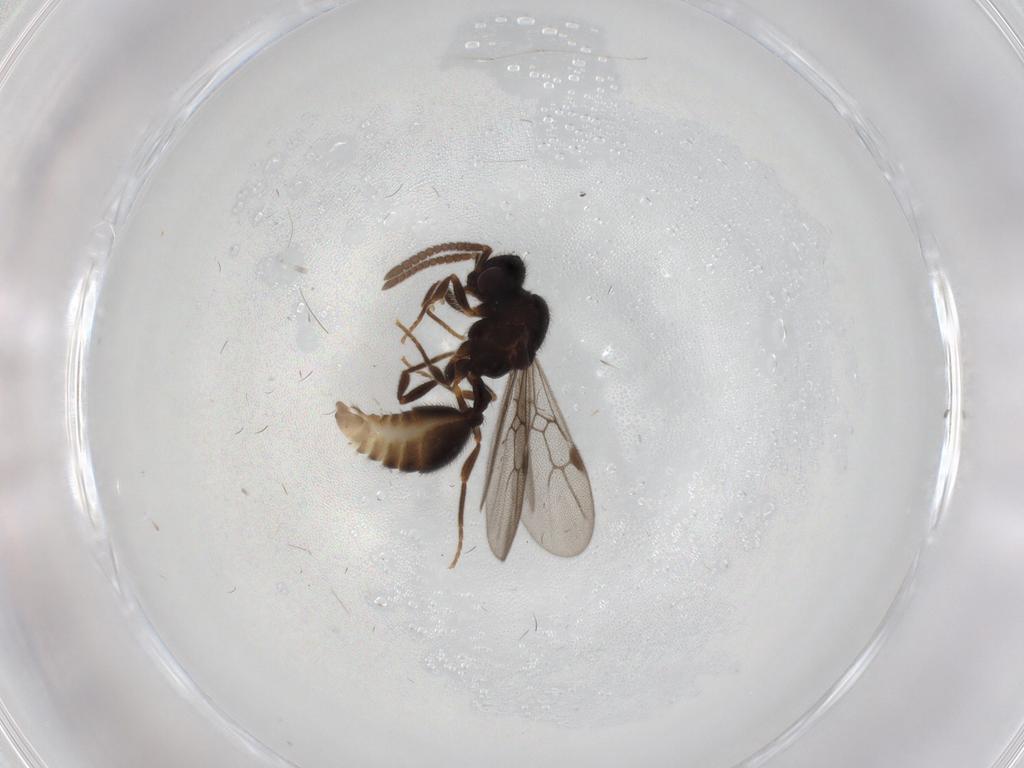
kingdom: Animalia
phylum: Arthropoda
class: Insecta
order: Hymenoptera
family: Formicidae
